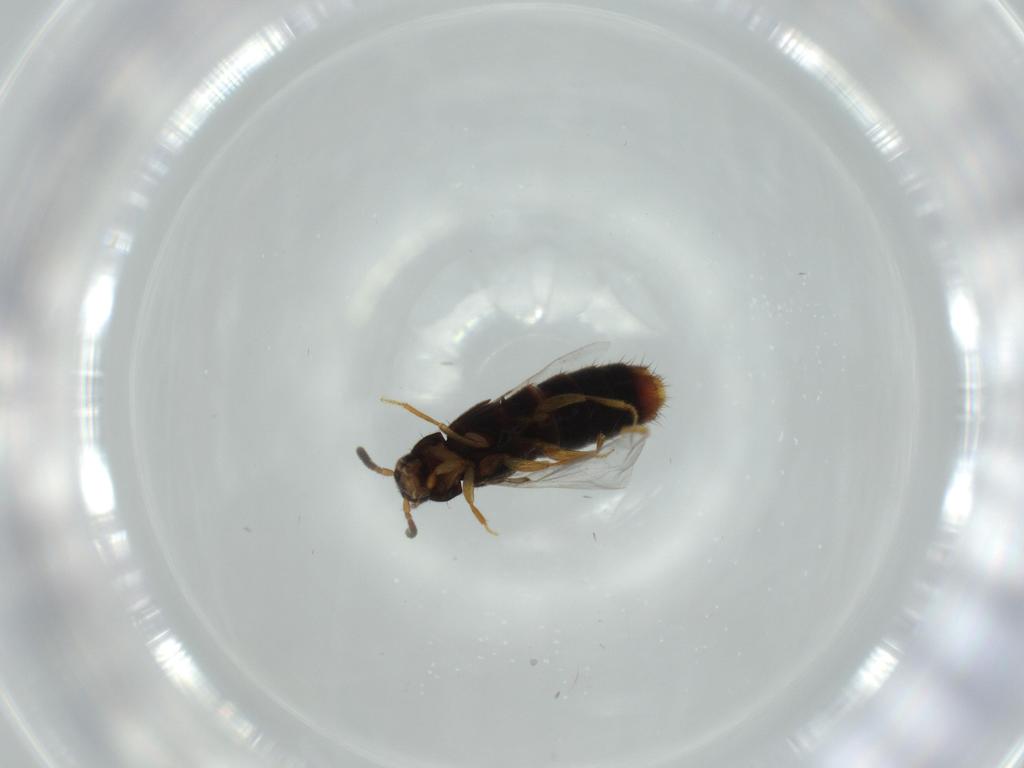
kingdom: Animalia
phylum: Arthropoda
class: Insecta
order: Coleoptera
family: Staphylinidae
